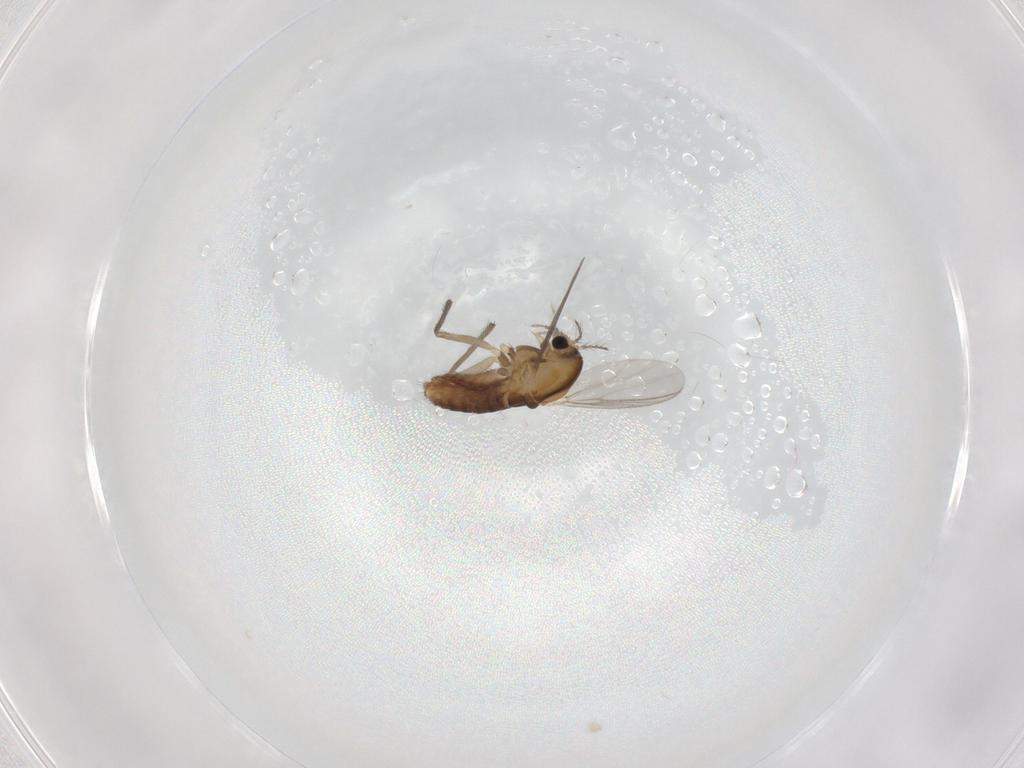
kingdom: Animalia
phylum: Arthropoda
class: Insecta
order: Diptera
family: Chironomidae
